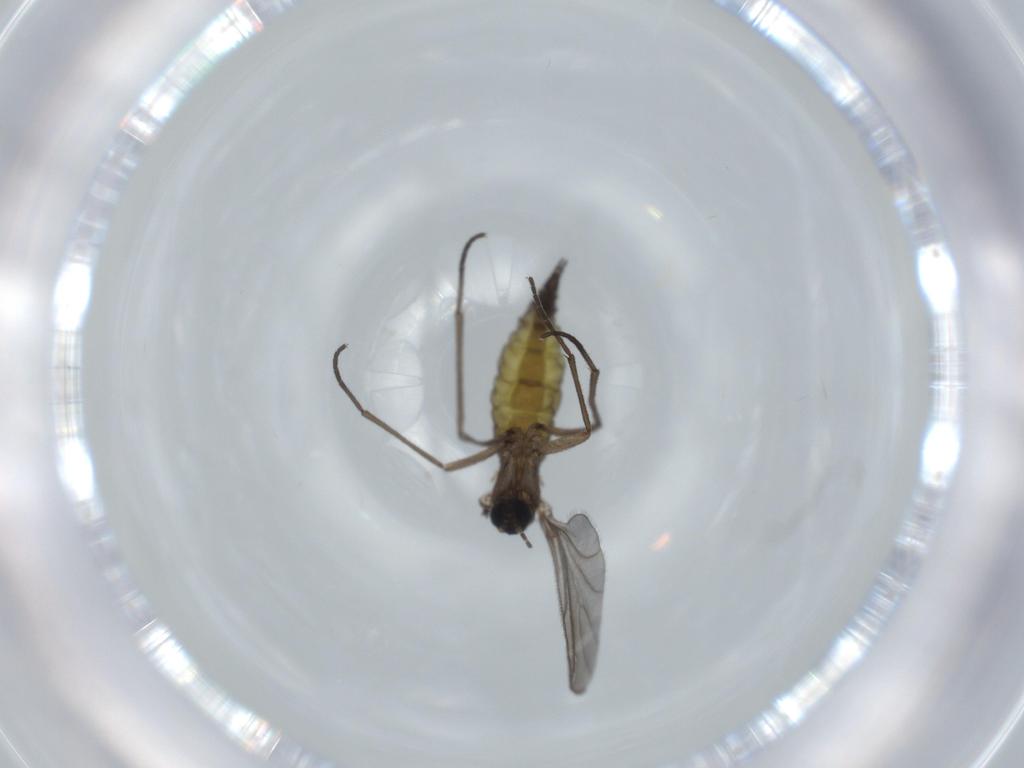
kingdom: Animalia
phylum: Arthropoda
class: Insecta
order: Diptera
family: Sciaridae
